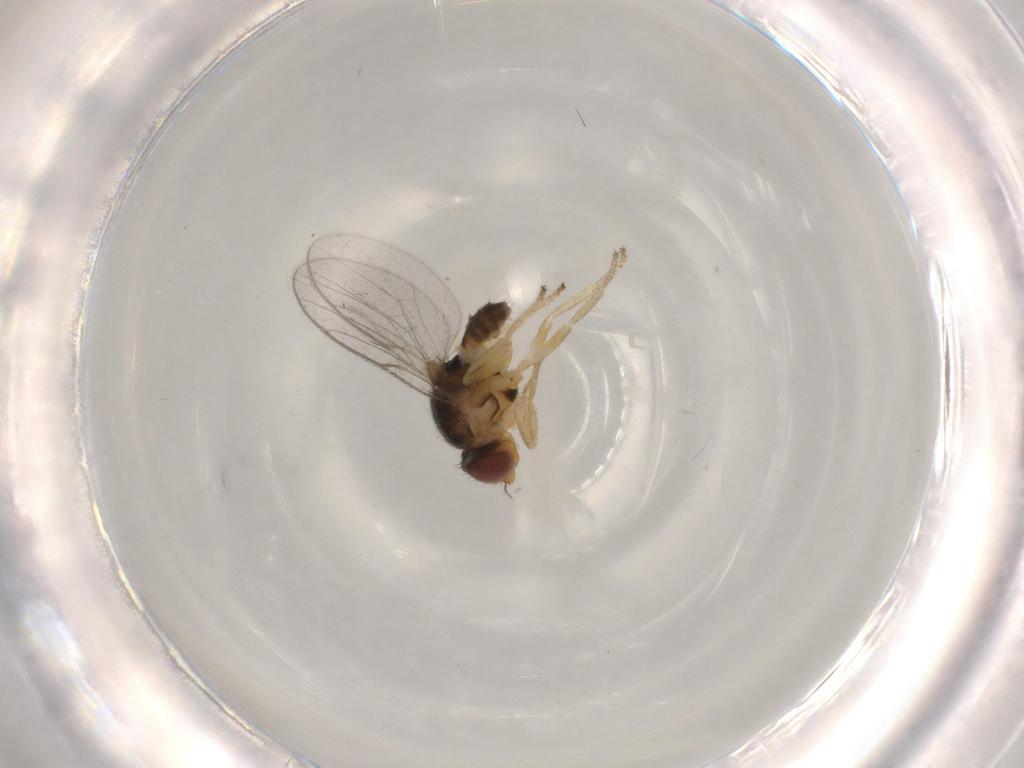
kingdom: Animalia
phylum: Arthropoda
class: Insecta
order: Diptera
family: Chloropidae
